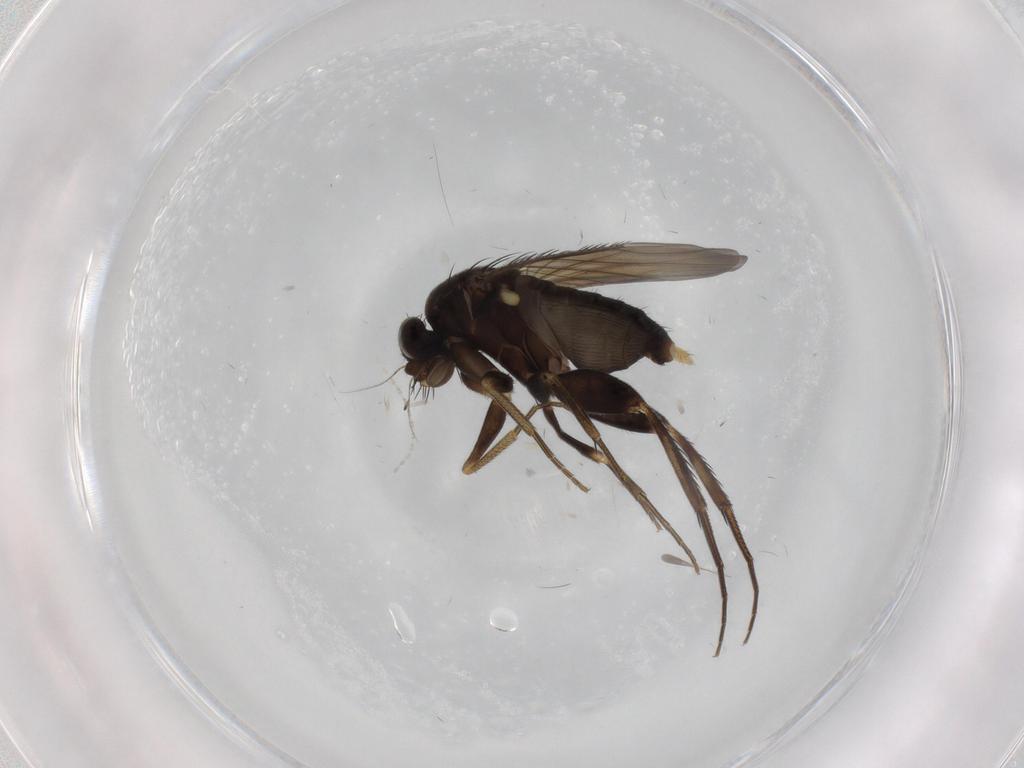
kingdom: Animalia
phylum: Arthropoda
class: Insecta
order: Diptera
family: Phoridae
